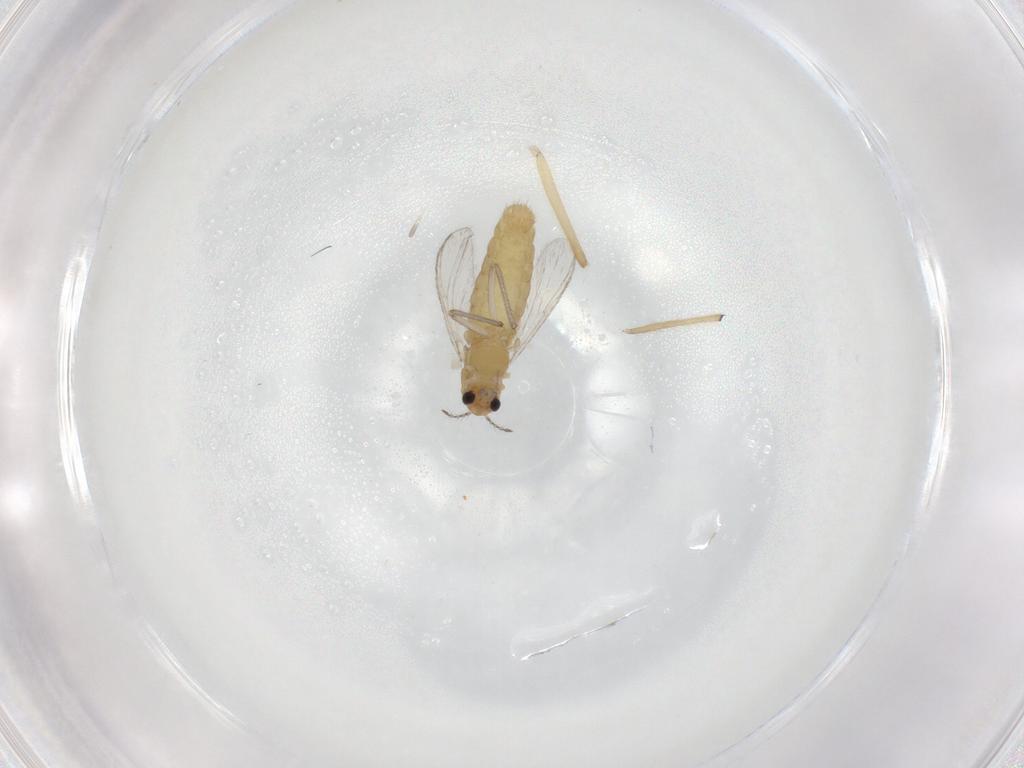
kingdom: Animalia
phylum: Arthropoda
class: Insecta
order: Diptera
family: Chironomidae
